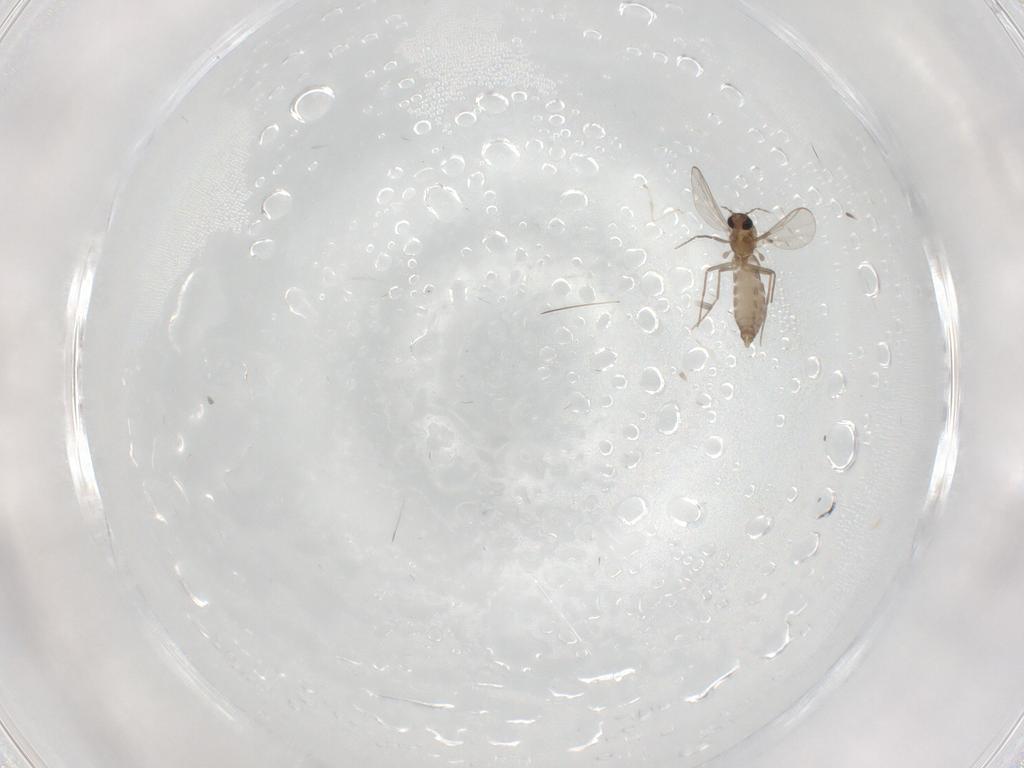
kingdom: Animalia
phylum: Arthropoda
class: Insecta
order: Diptera
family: Chironomidae
